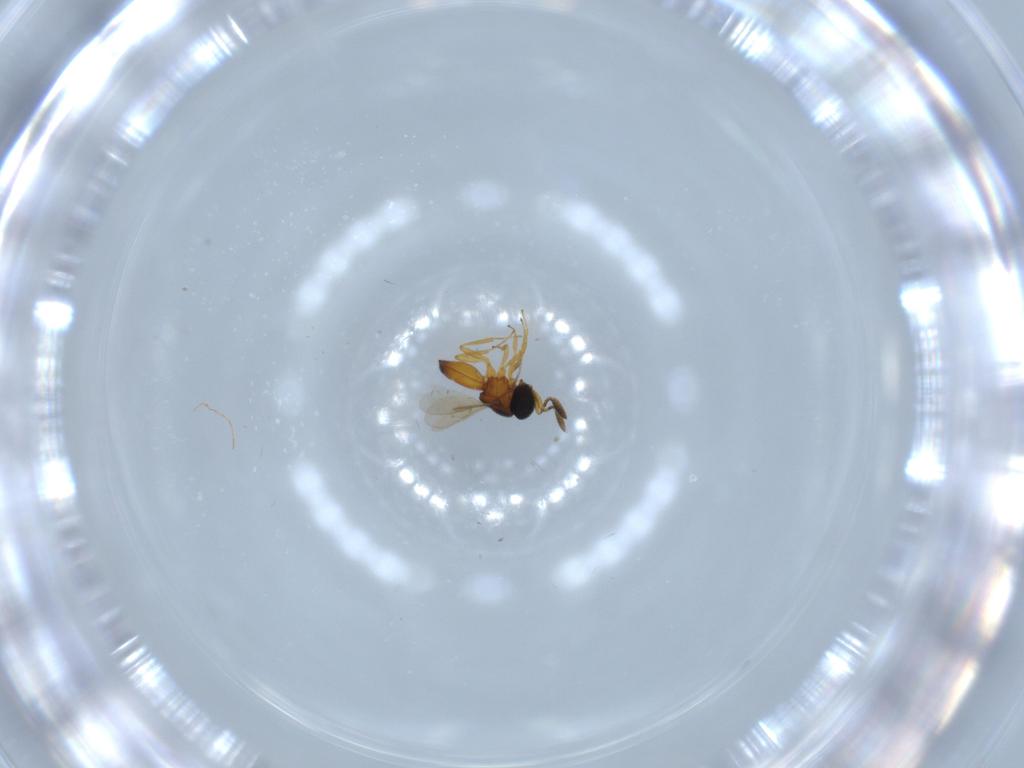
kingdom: Animalia
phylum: Arthropoda
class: Insecta
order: Hymenoptera
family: Scelionidae
